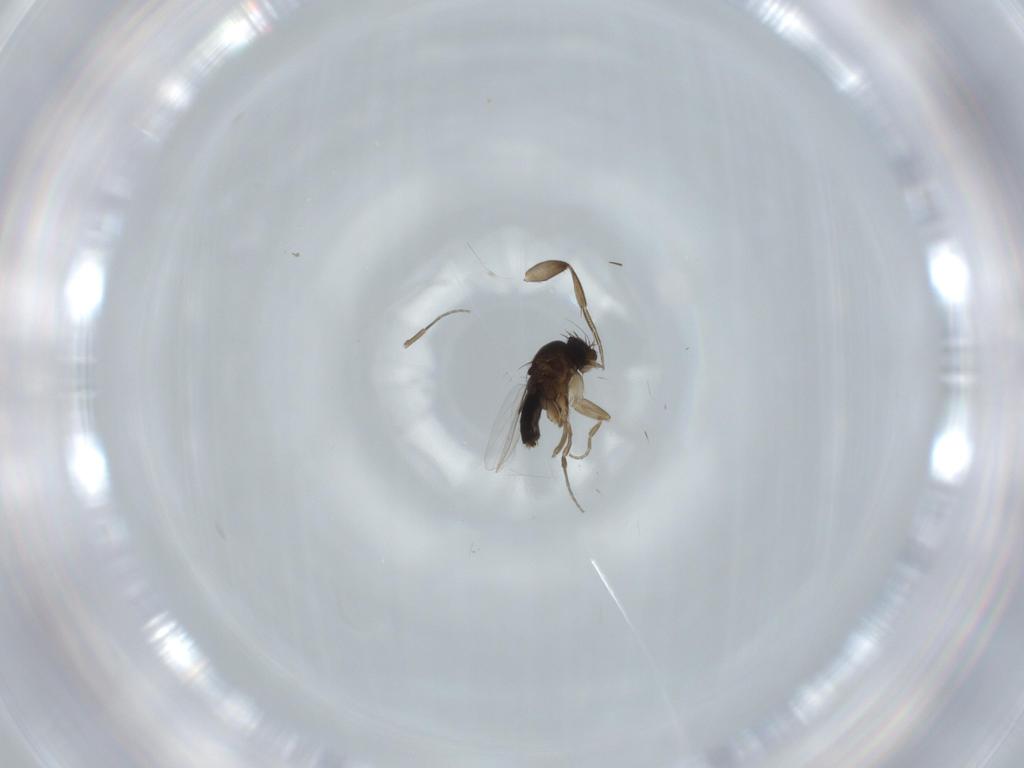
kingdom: Animalia
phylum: Arthropoda
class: Insecta
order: Diptera
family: Phoridae
